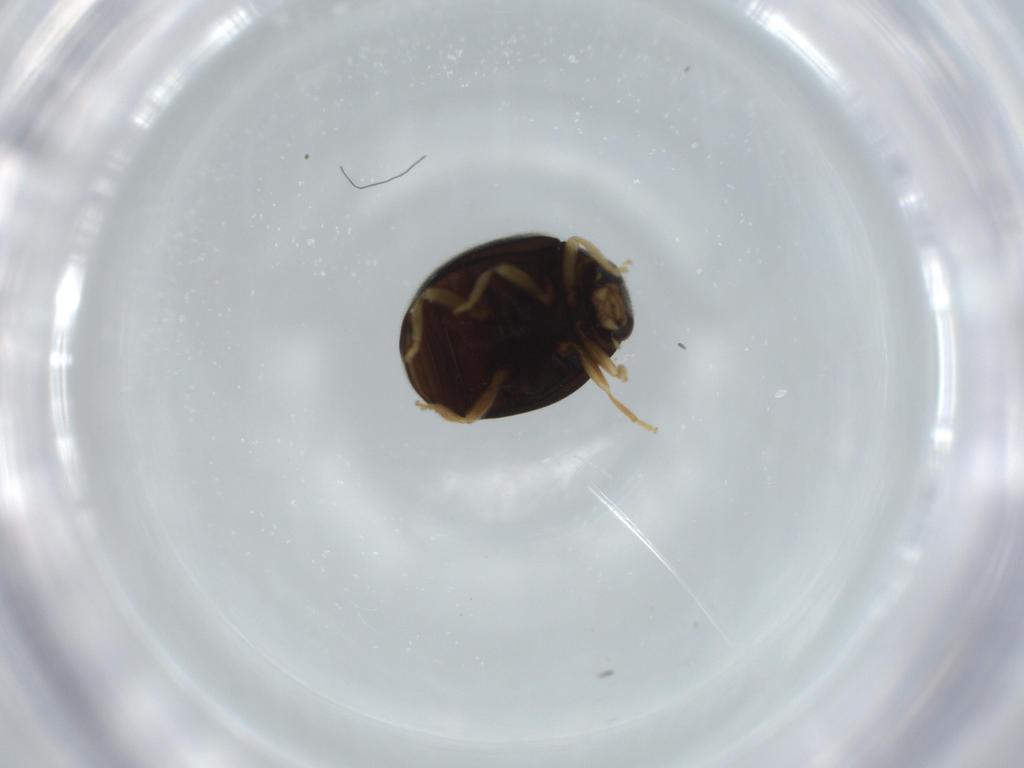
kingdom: Animalia
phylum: Arthropoda
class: Insecta
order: Coleoptera
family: Coccinellidae
